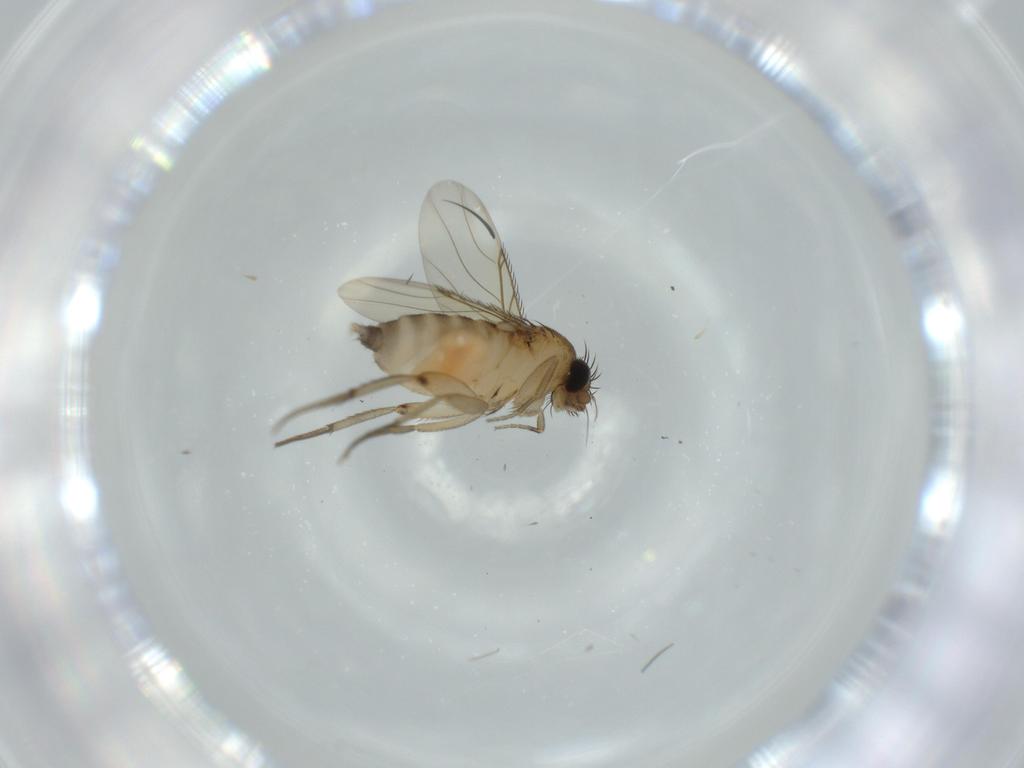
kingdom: Animalia
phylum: Arthropoda
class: Insecta
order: Diptera
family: Phoridae
